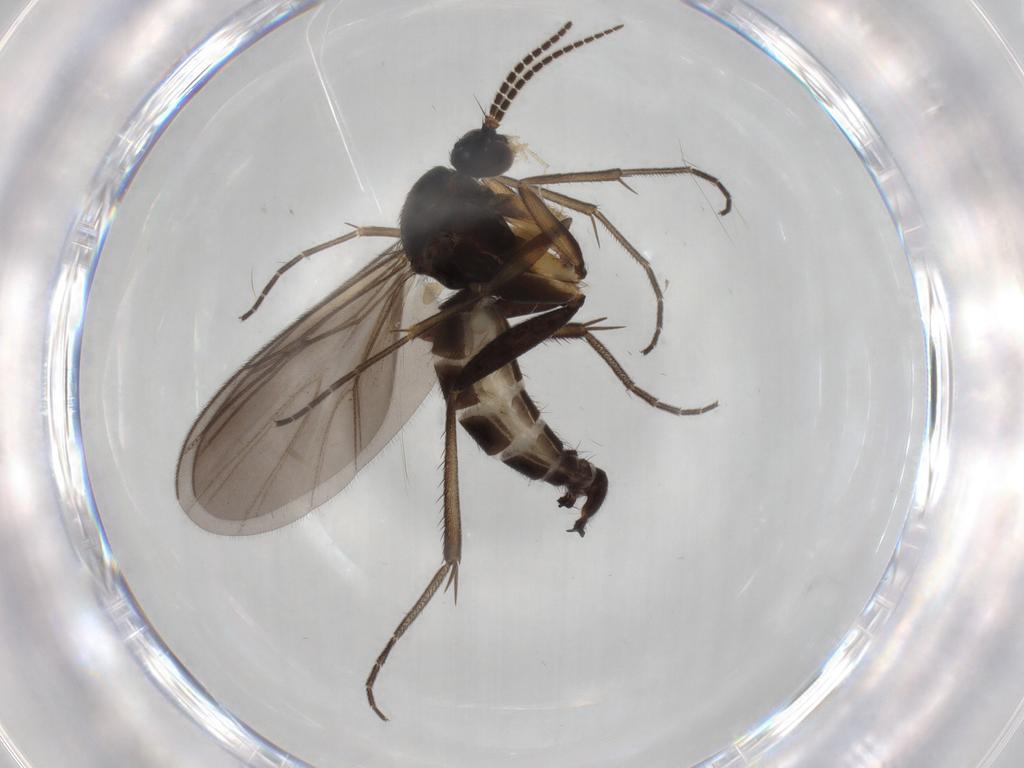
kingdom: Animalia
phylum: Arthropoda
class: Insecta
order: Diptera
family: Mycetophilidae
